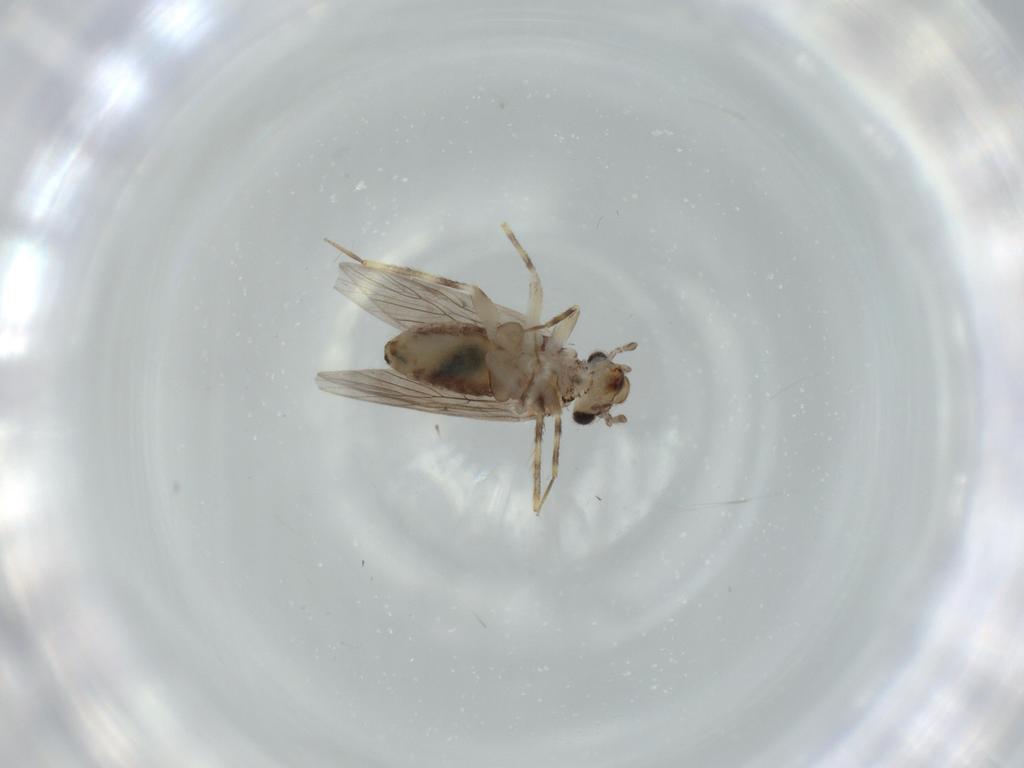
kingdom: Animalia
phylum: Arthropoda
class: Insecta
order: Psocodea
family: Lepidopsocidae
